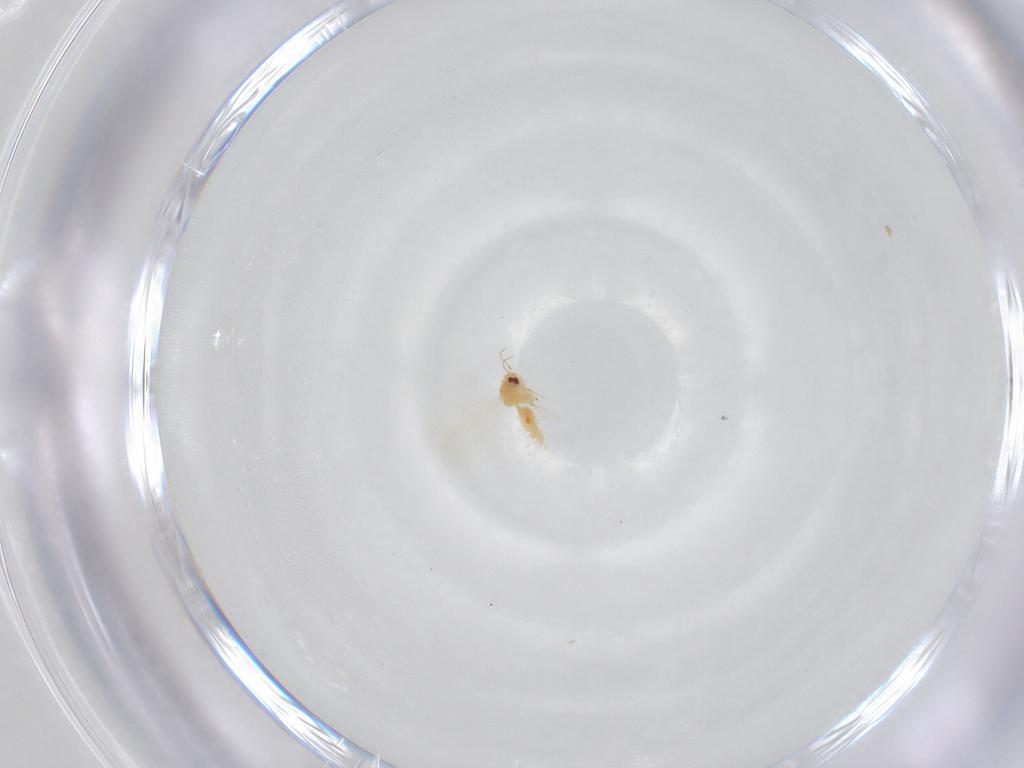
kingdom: Animalia
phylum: Arthropoda
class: Insecta
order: Hemiptera
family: Aleyrodidae
